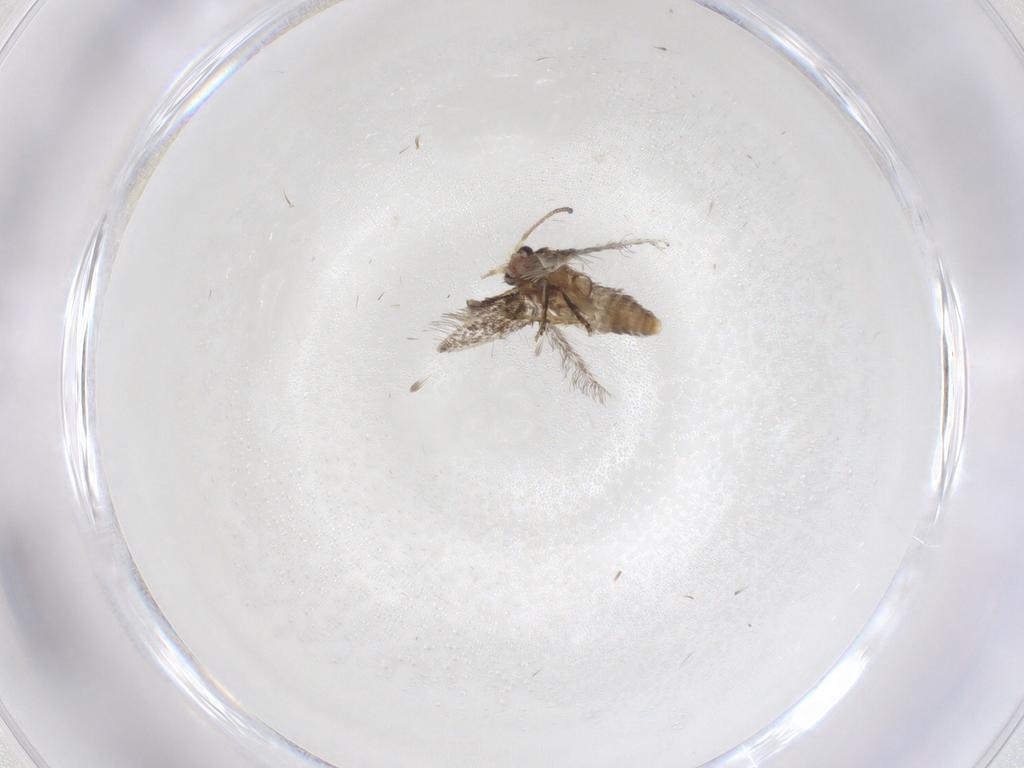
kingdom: Animalia
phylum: Arthropoda
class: Insecta
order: Lepidoptera
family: Nepticulidae
